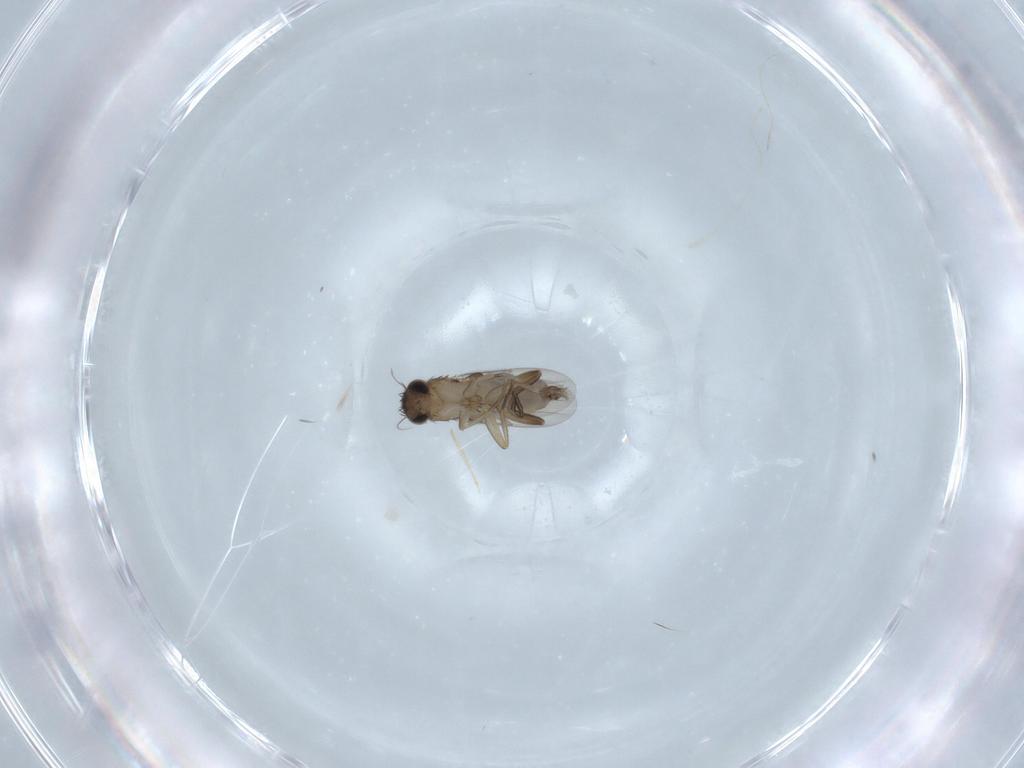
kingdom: Animalia
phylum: Arthropoda
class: Insecta
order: Diptera
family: Phoridae
